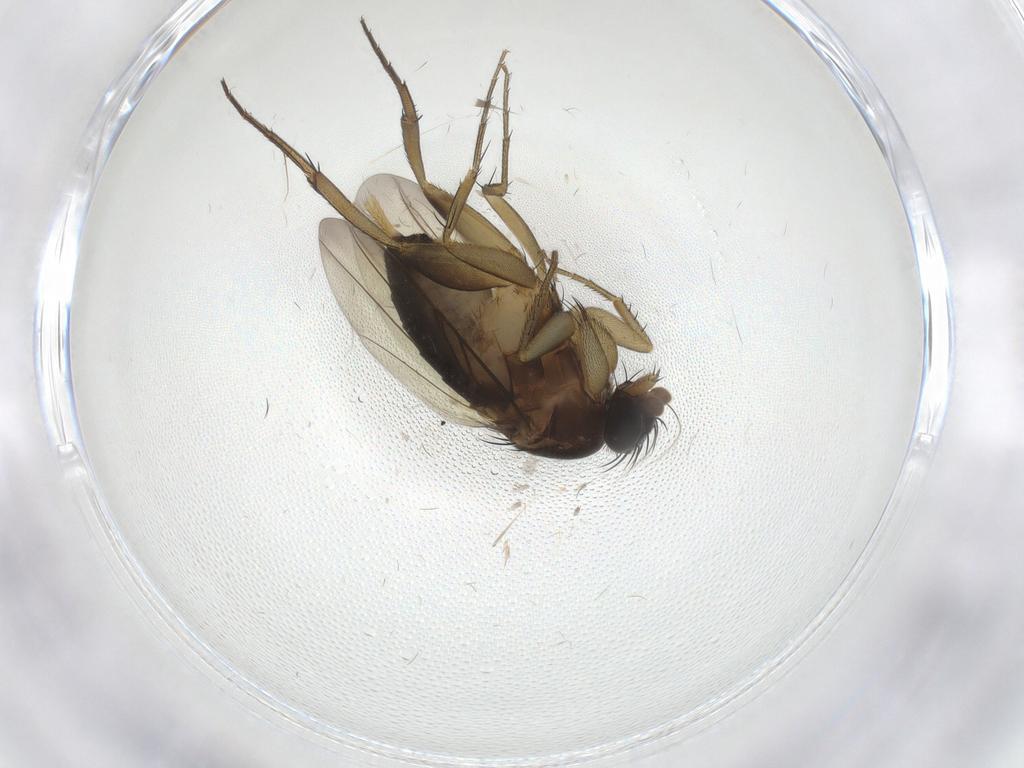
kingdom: Animalia
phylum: Arthropoda
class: Insecta
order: Diptera
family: Phoridae
